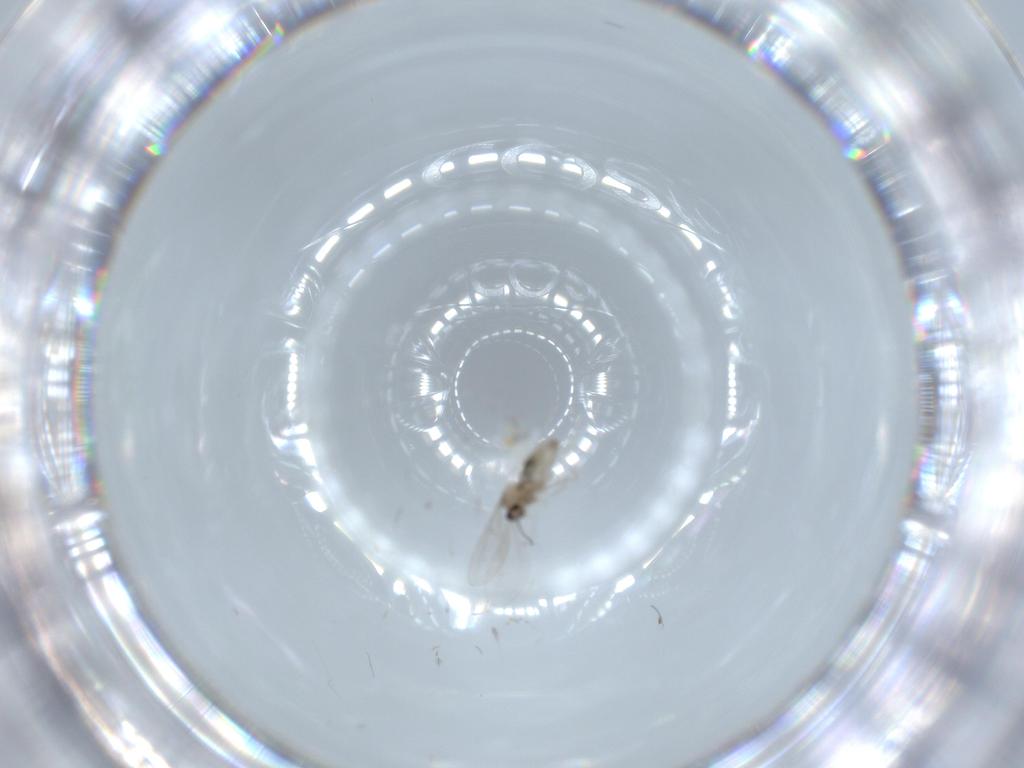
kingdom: Animalia
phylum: Arthropoda
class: Insecta
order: Diptera
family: Cecidomyiidae
